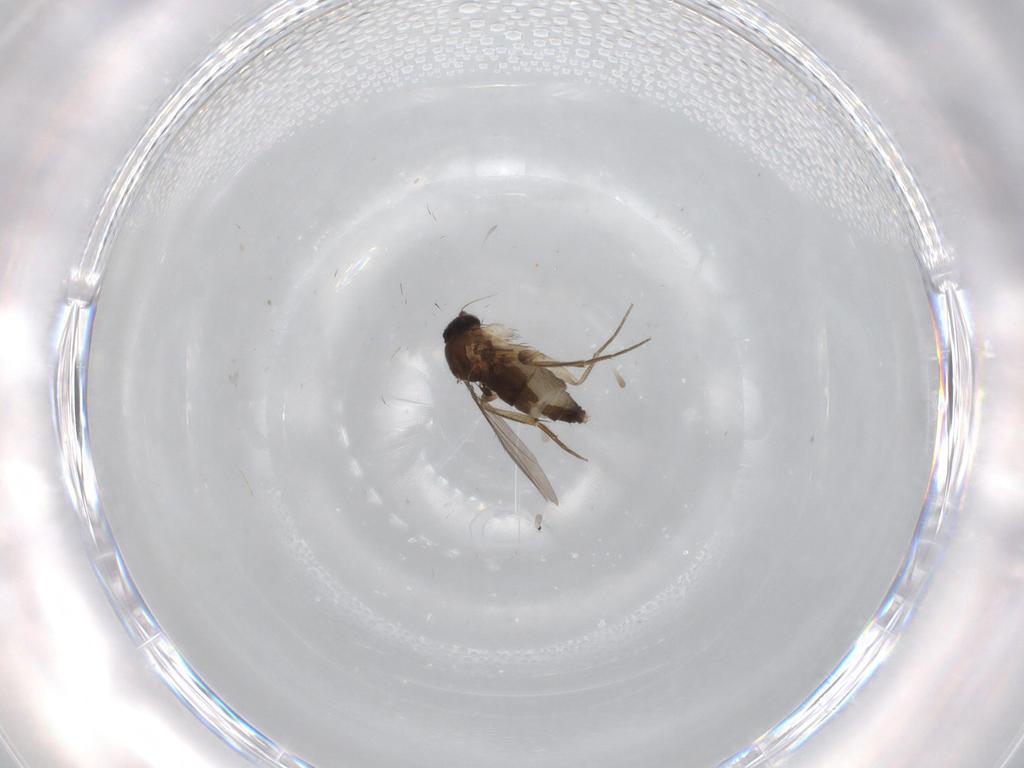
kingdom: Animalia
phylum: Arthropoda
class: Insecta
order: Diptera
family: Phoridae
